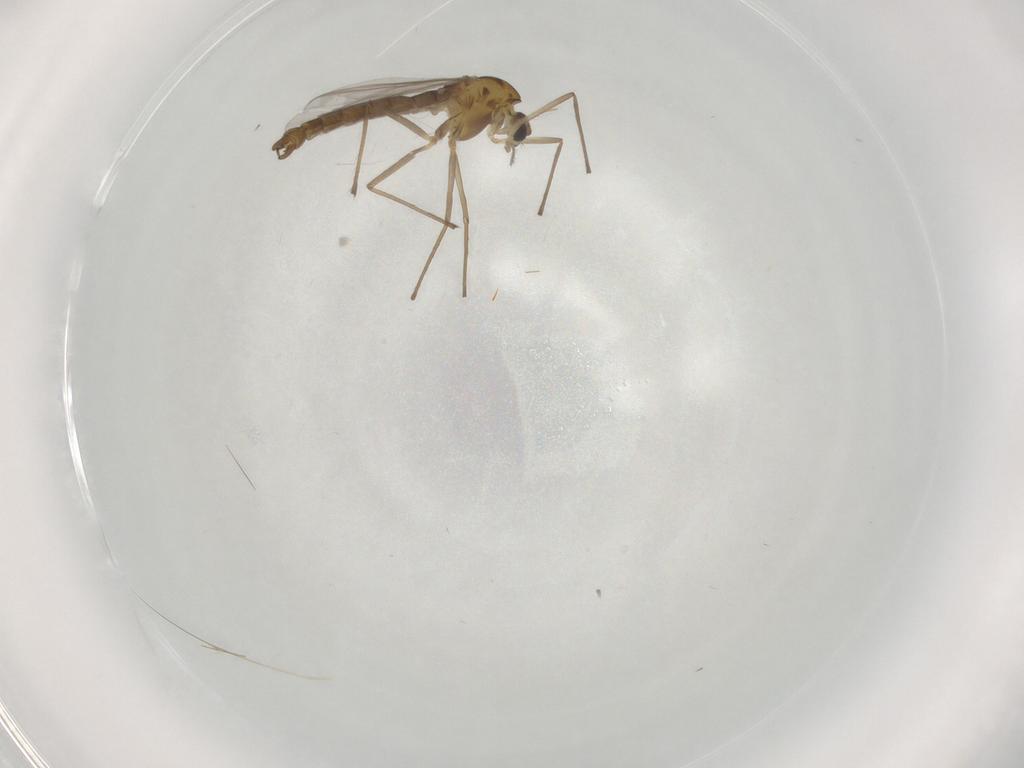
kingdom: Animalia
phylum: Arthropoda
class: Insecta
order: Diptera
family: Chironomidae
